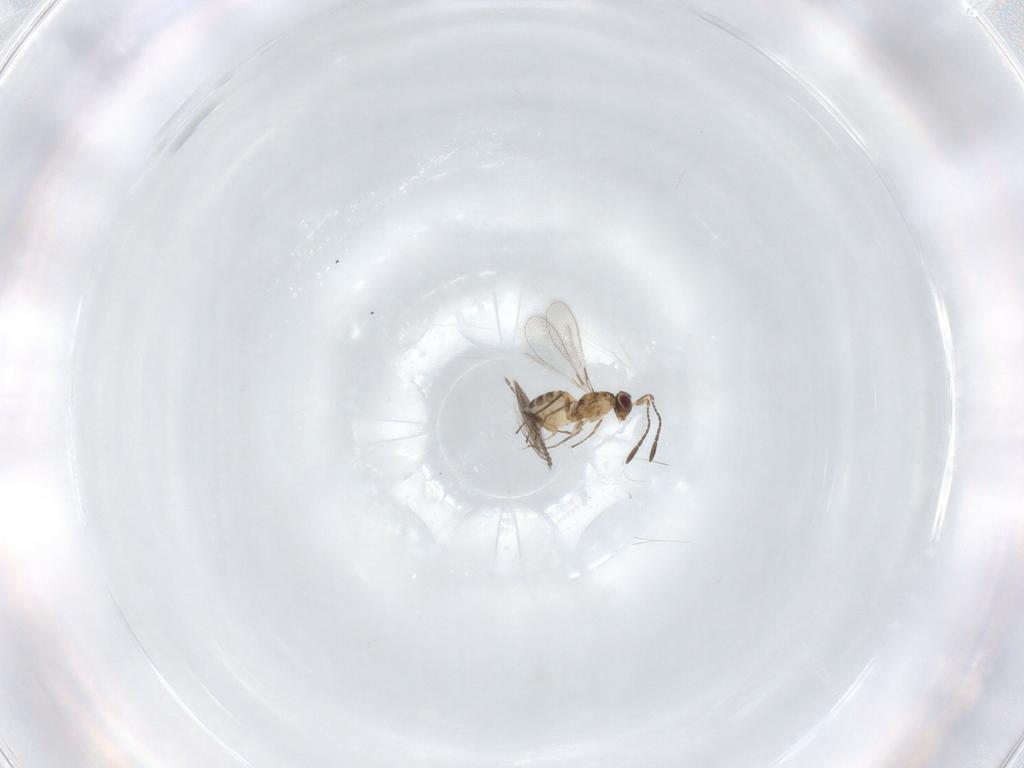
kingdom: Animalia
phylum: Arthropoda
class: Insecta
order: Hymenoptera
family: Mymaridae
